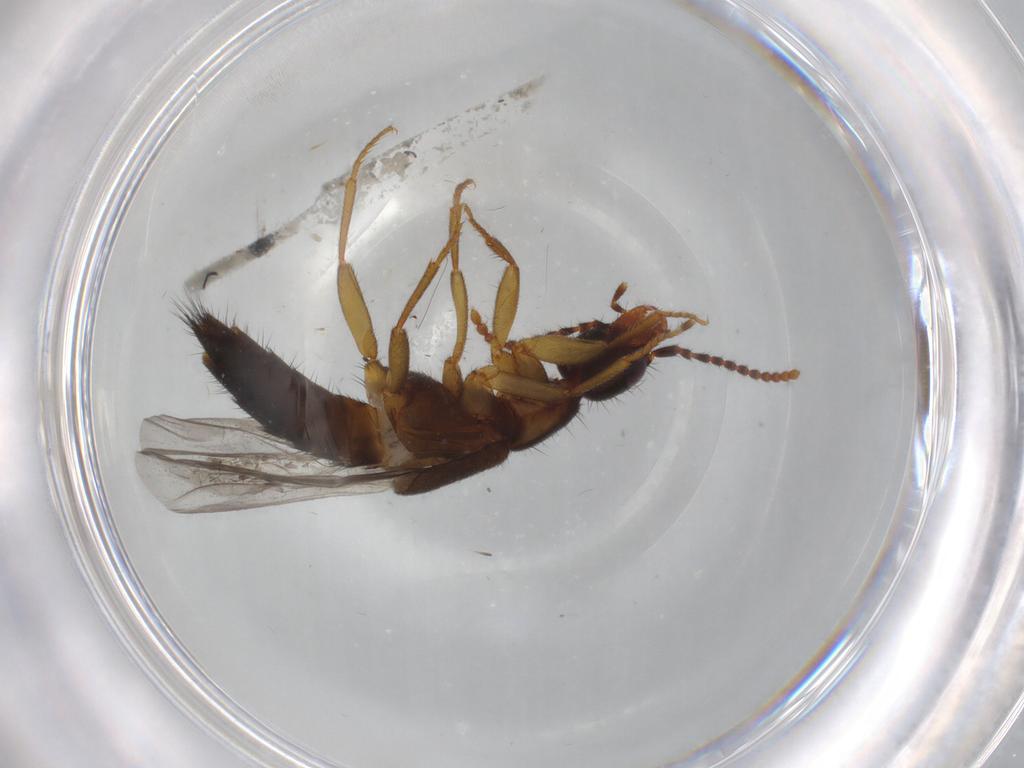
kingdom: Animalia
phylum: Arthropoda
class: Insecta
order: Coleoptera
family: Staphylinidae
